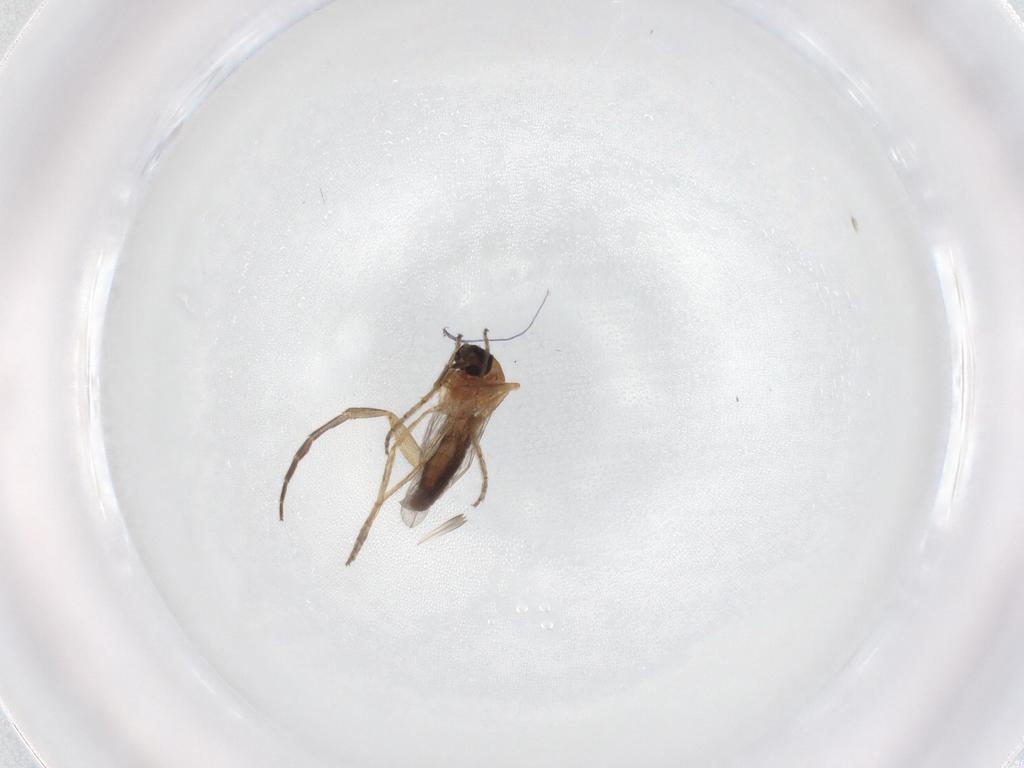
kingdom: Animalia
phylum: Arthropoda
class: Insecta
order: Diptera
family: Ceratopogonidae
